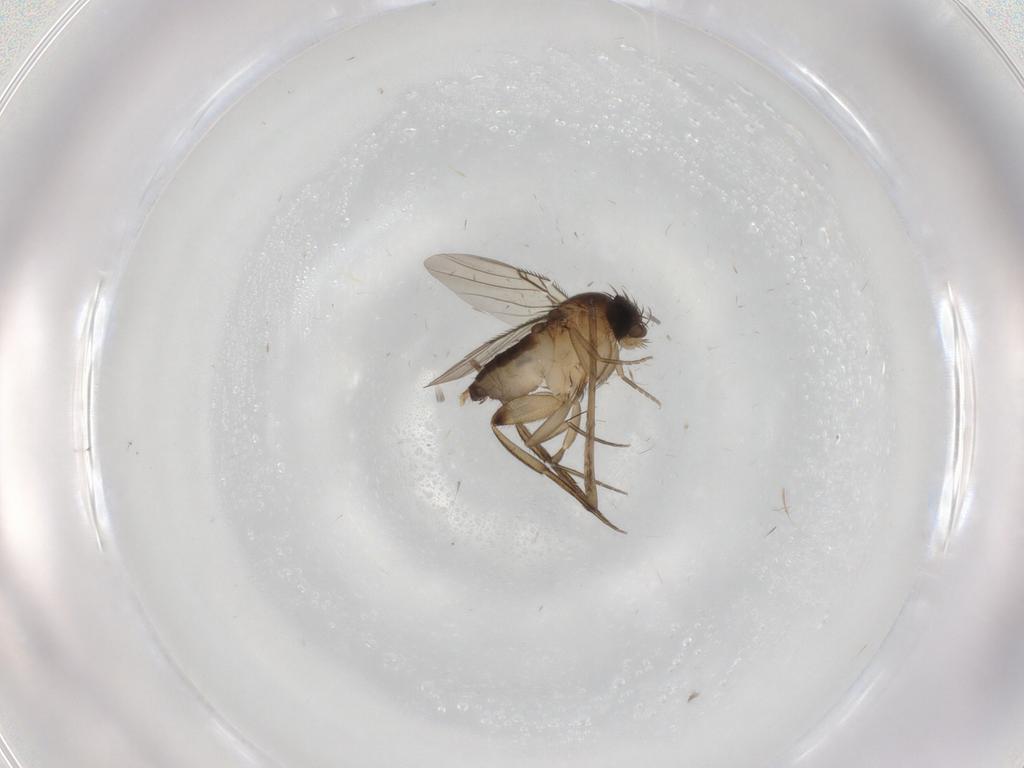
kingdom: Animalia
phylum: Arthropoda
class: Insecta
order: Diptera
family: Phoridae
